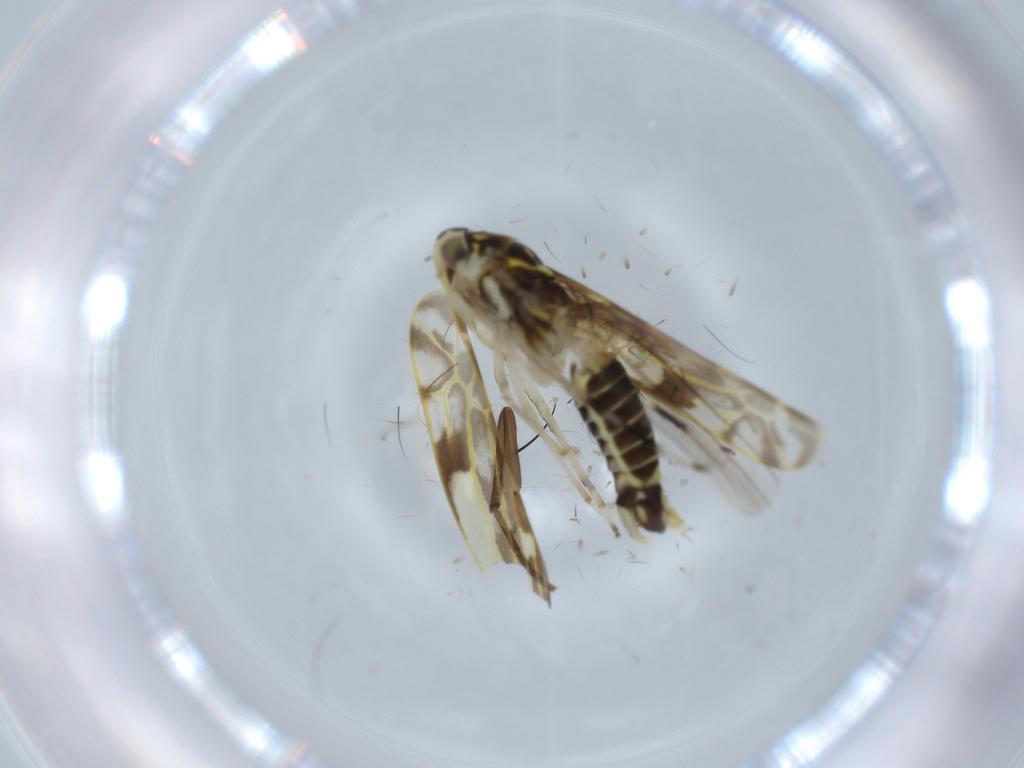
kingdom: Animalia
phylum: Arthropoda
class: Insecta
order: Hemiptera
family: Cicadellidae
